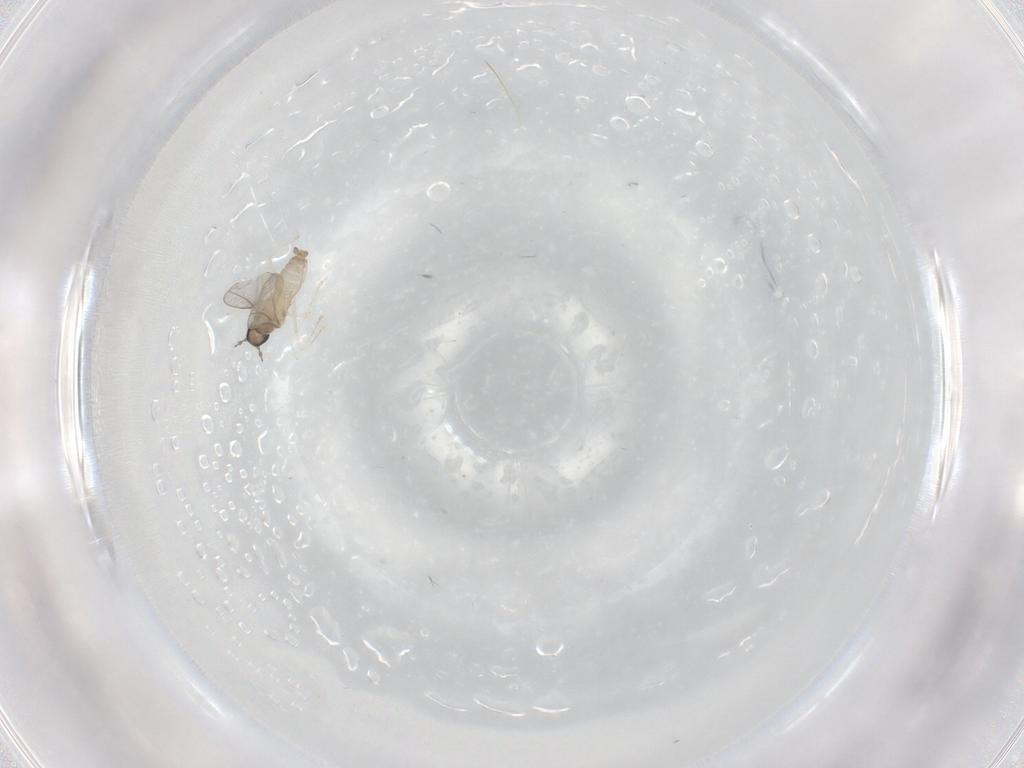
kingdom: Animalia
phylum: Arthropoda
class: Insecta
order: Diptera
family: Cecidomyiidae
